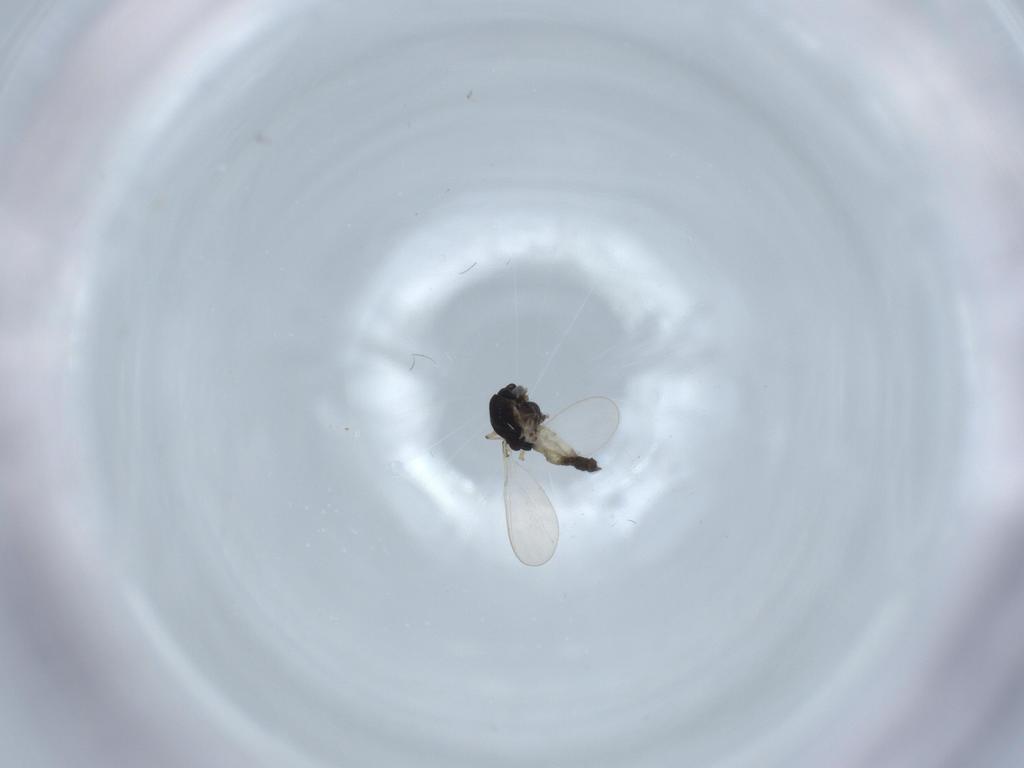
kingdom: Animalia
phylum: Arthropoda
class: Insecta
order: Diptera
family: Chironomidae
